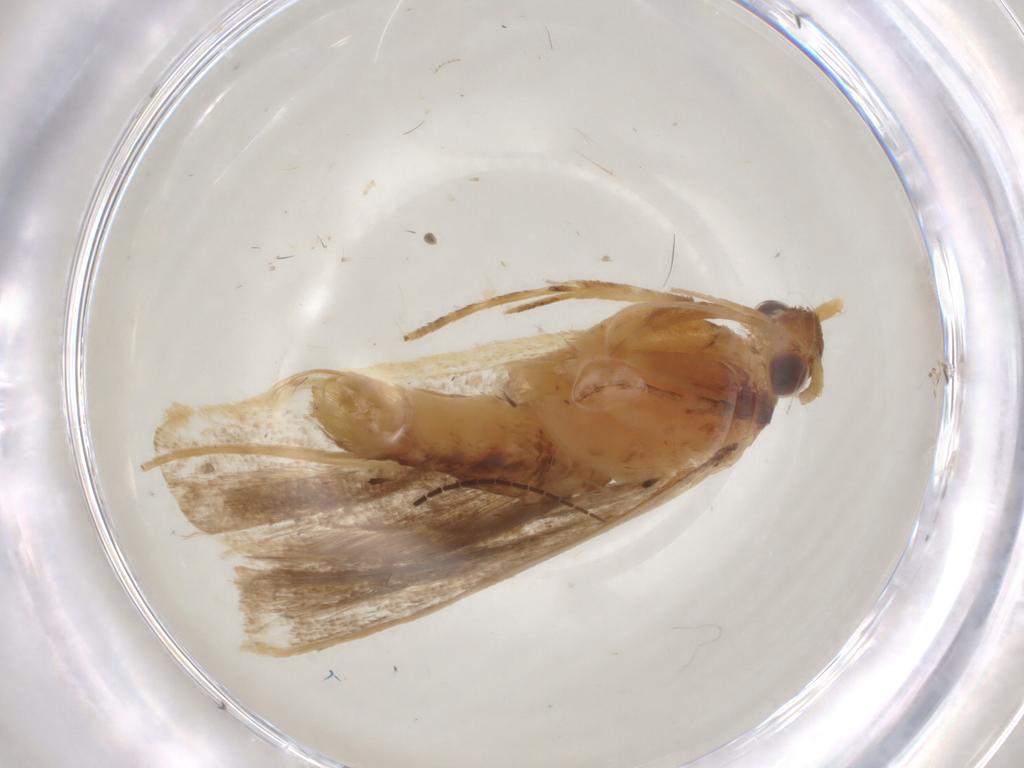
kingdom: Animalia
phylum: Arthropoda
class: Insecta
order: Lepidoptera
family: Lecithoceridae
